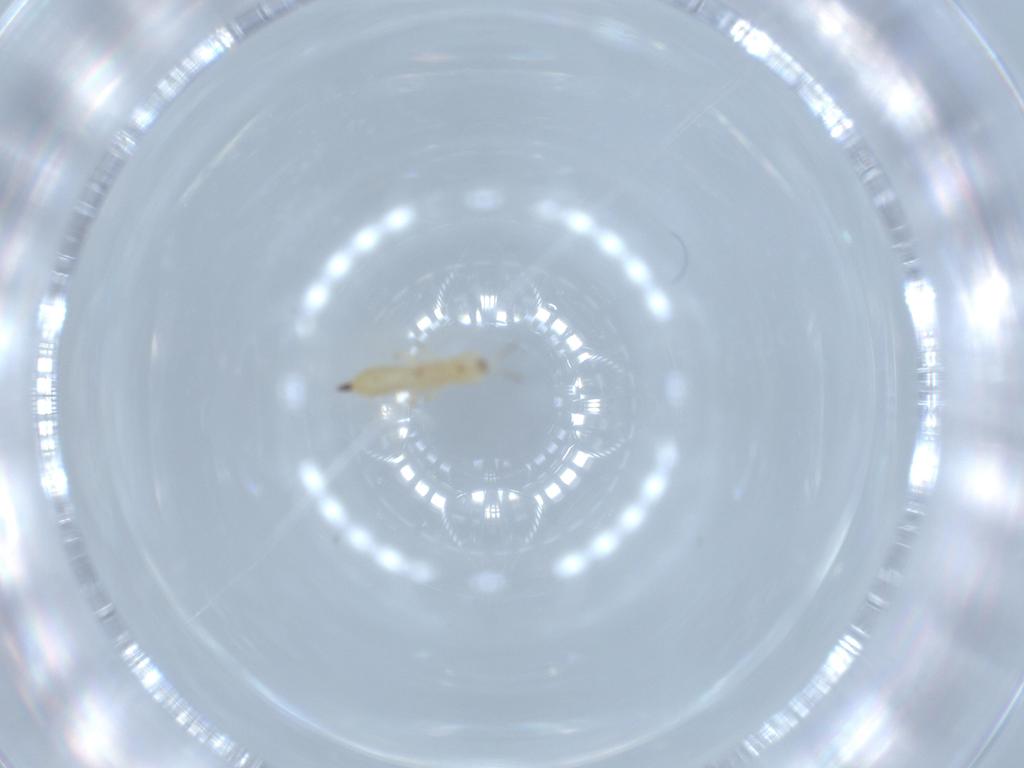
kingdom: Animalia
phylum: Arthropoda
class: Insecta
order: Thysanoptera
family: Phlaeothripidae
